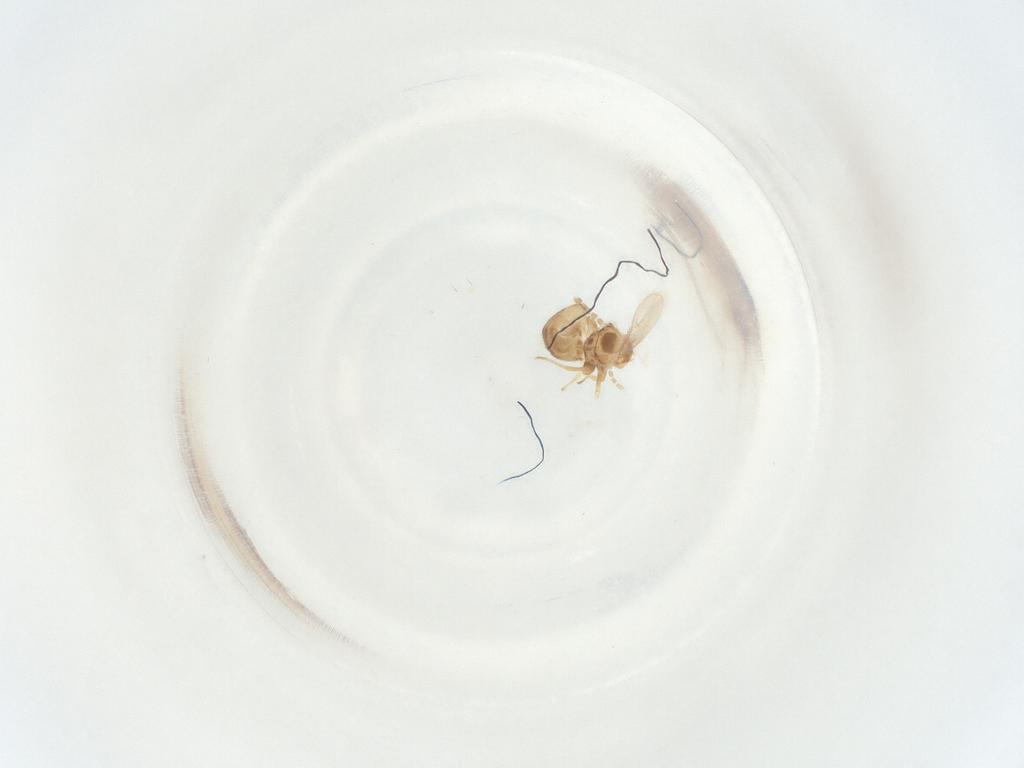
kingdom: Animalia
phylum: Arthropoda
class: Insecta
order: Diptera
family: Sciaridae
